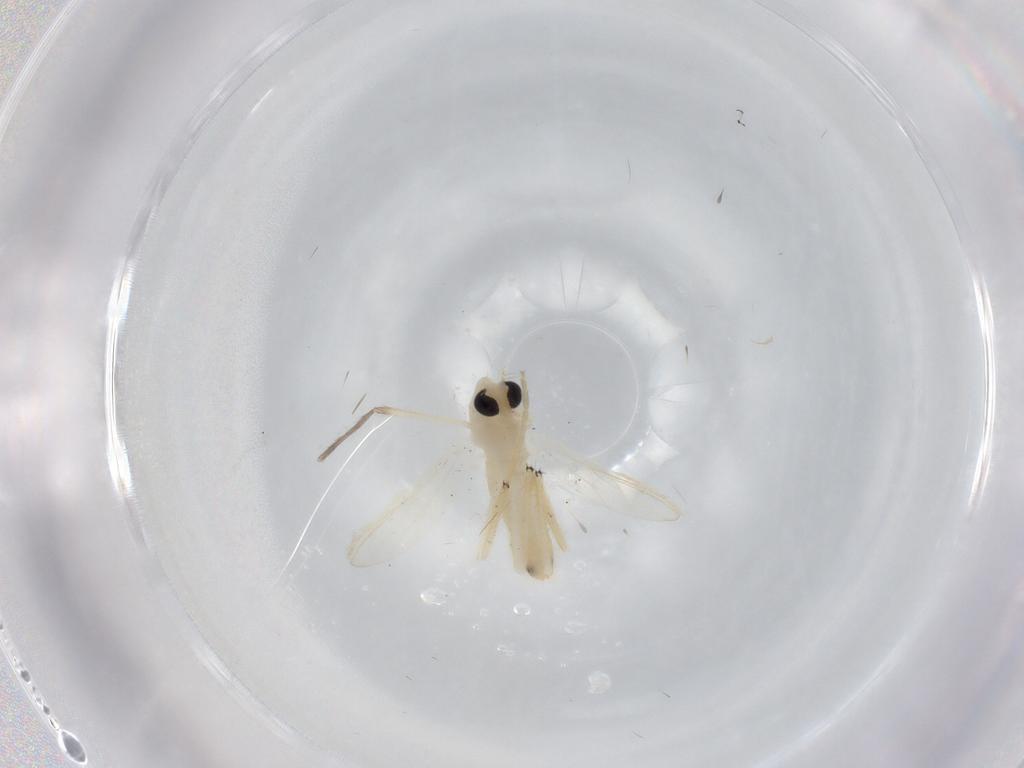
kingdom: Animalia
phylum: Arthropoda
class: Insecta
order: Diptera
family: Chironomidae
